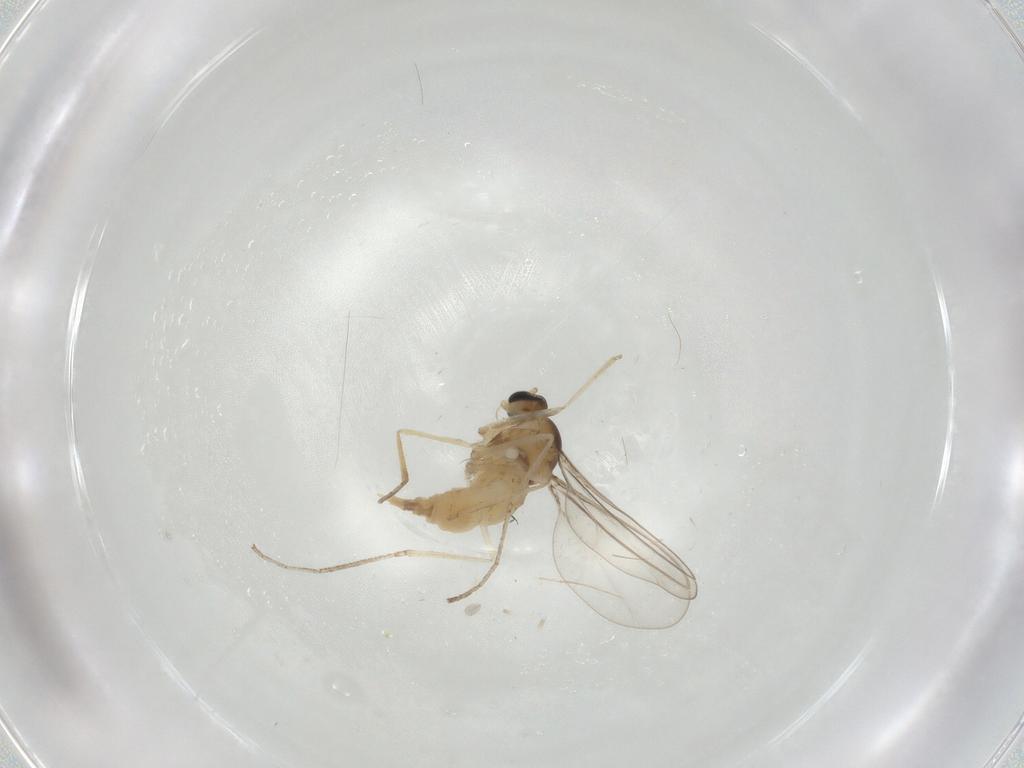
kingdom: Animalia
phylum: Arthropoda
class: Insecta
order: Diptera
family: Cecidomyiidae
